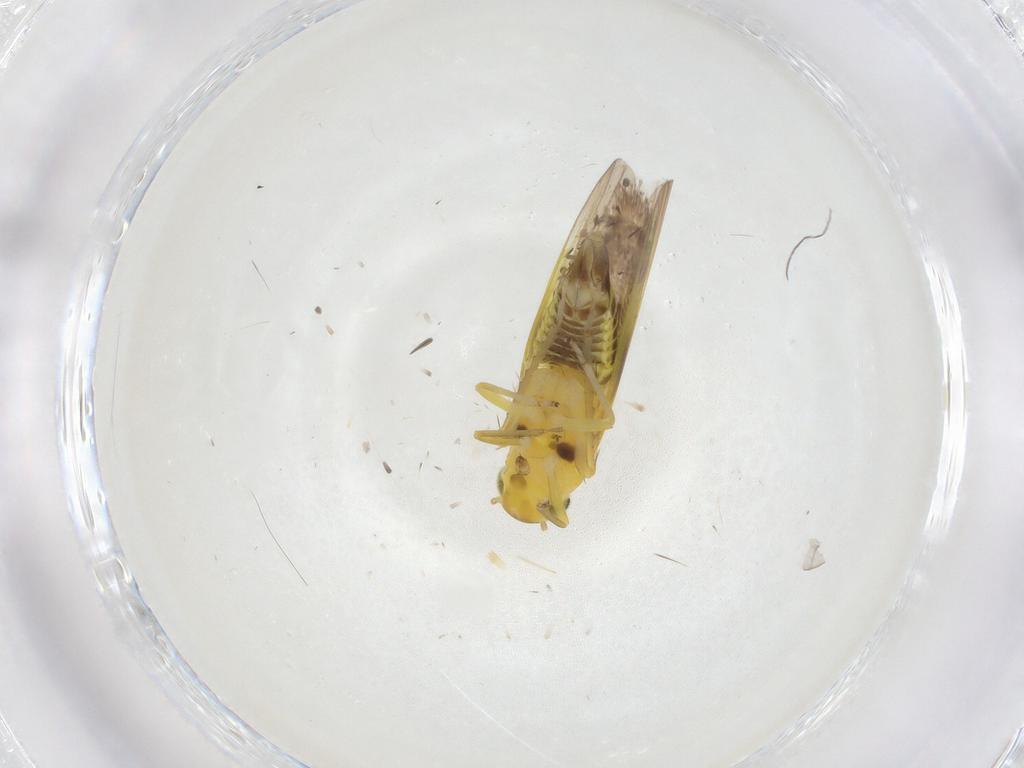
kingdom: Animalia
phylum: Arthropoda
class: Insecta
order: Hemiptera
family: Cicadellidae
